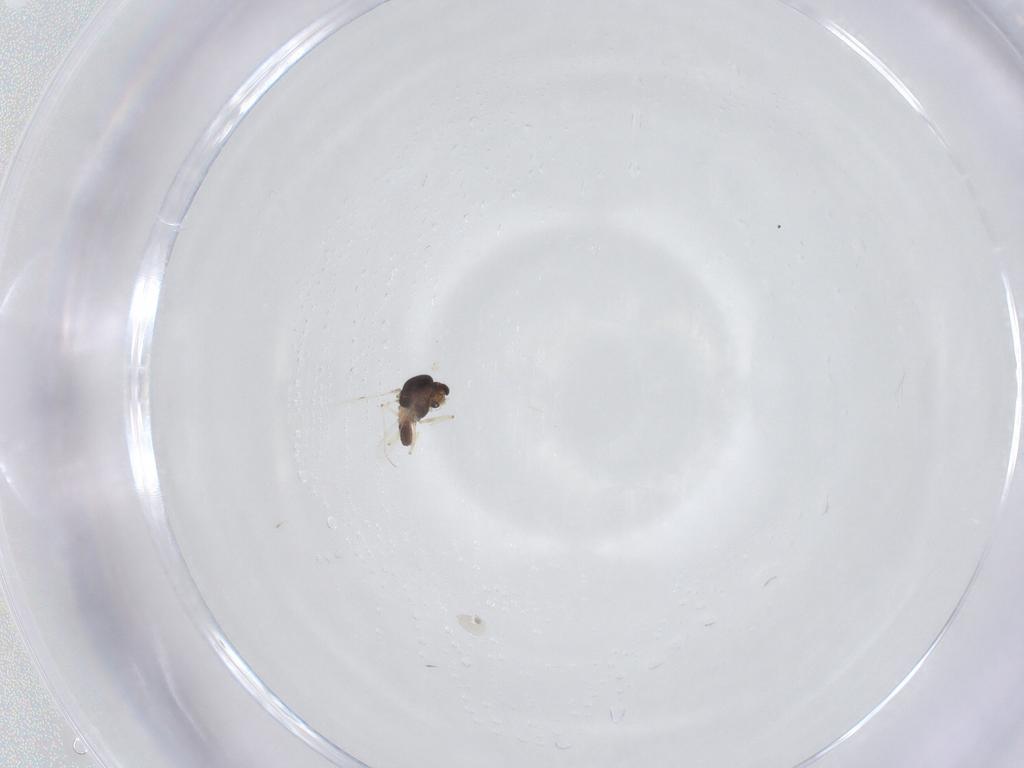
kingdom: Animalia
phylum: Arthropoda
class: Insecta
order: Diptera
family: Chironomidae
